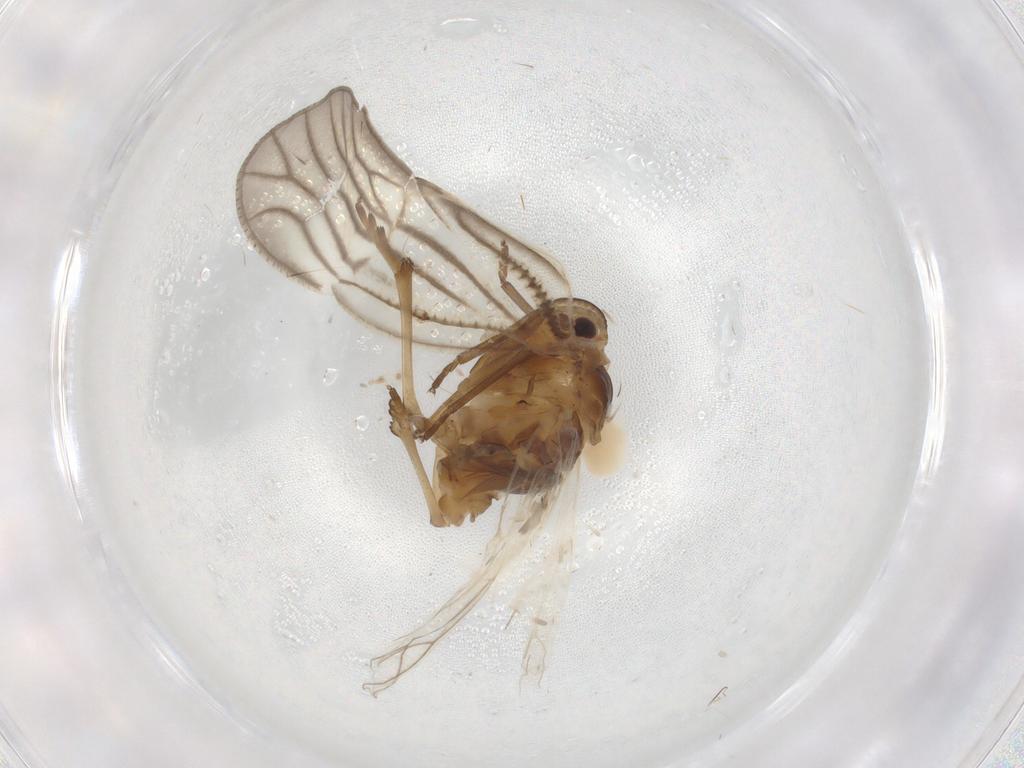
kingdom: Animalia
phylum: Arthropoda
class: Insecta
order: Hemiptera
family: Meenoplidae
